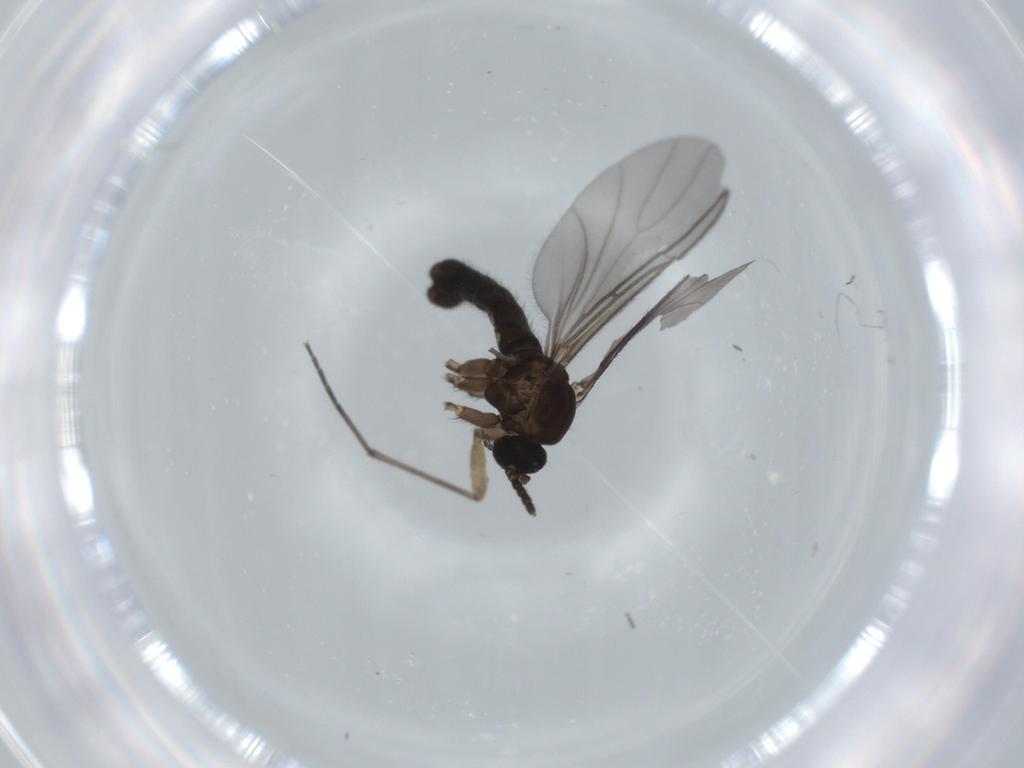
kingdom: Animalia
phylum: Arthropoda
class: Insecta
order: Diptera
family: Sciaridae
